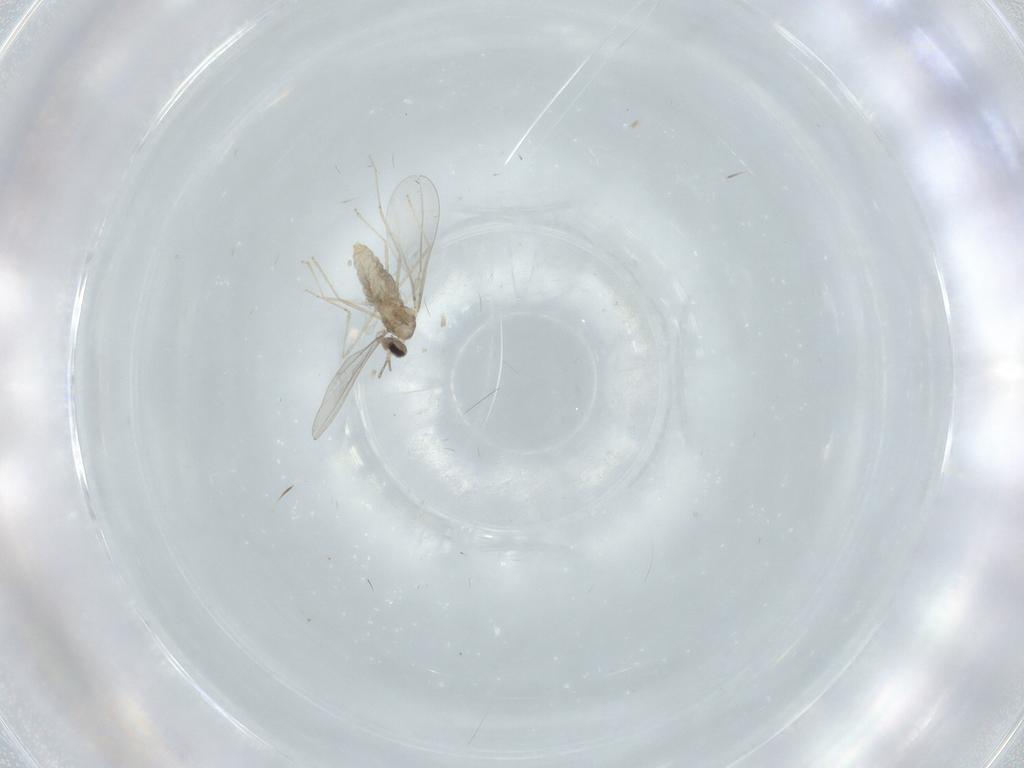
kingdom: Animalia
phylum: Arthropoda
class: Insecta
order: Diptera
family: Cecidomyiidae
